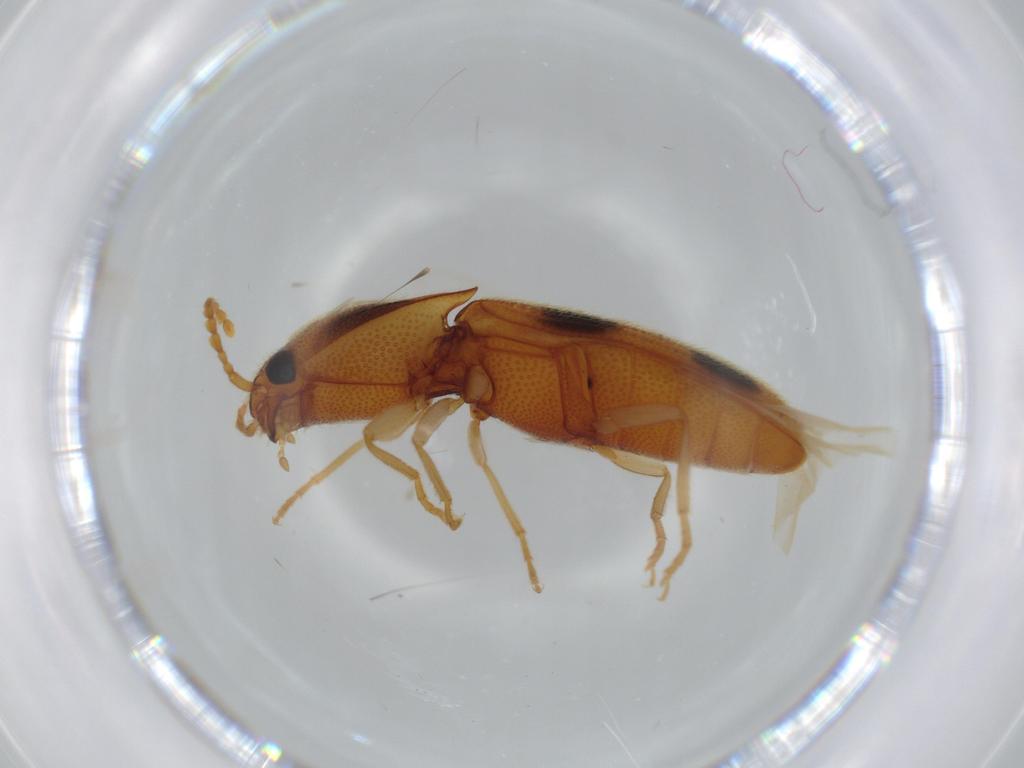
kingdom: Animalia
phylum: Arthropoda
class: Insecta
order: Coleoptera
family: Elateridae
